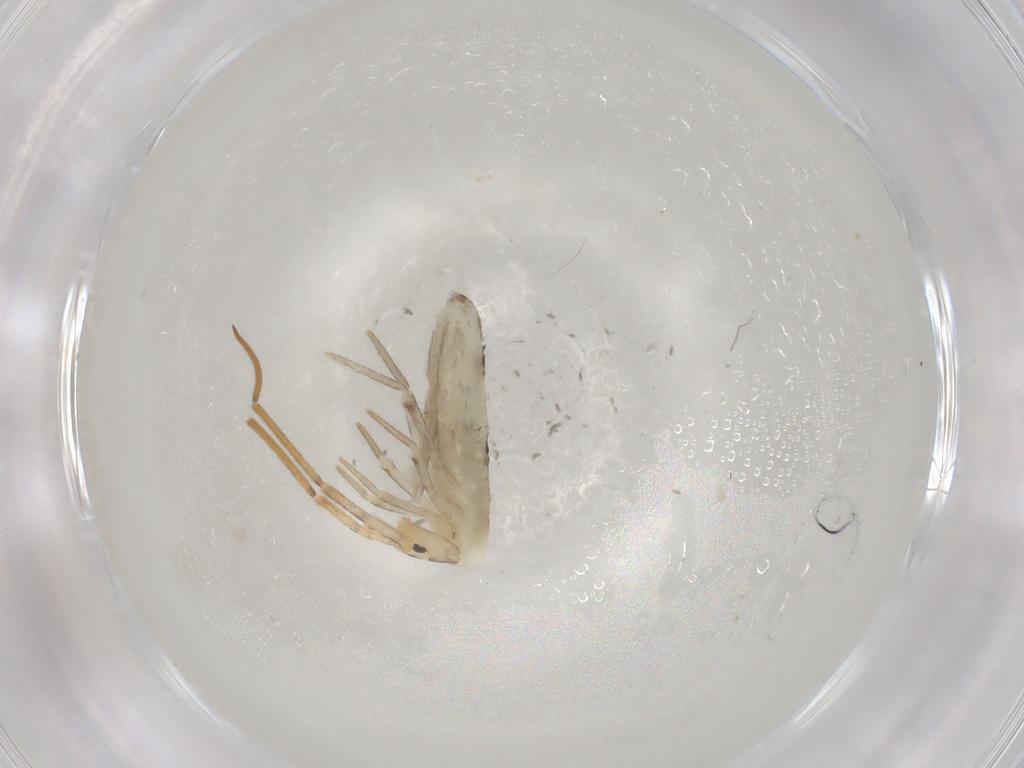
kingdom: Animalia
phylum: Arthropoda
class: Collembola
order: Poduromorpha
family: Hypogastruridae
